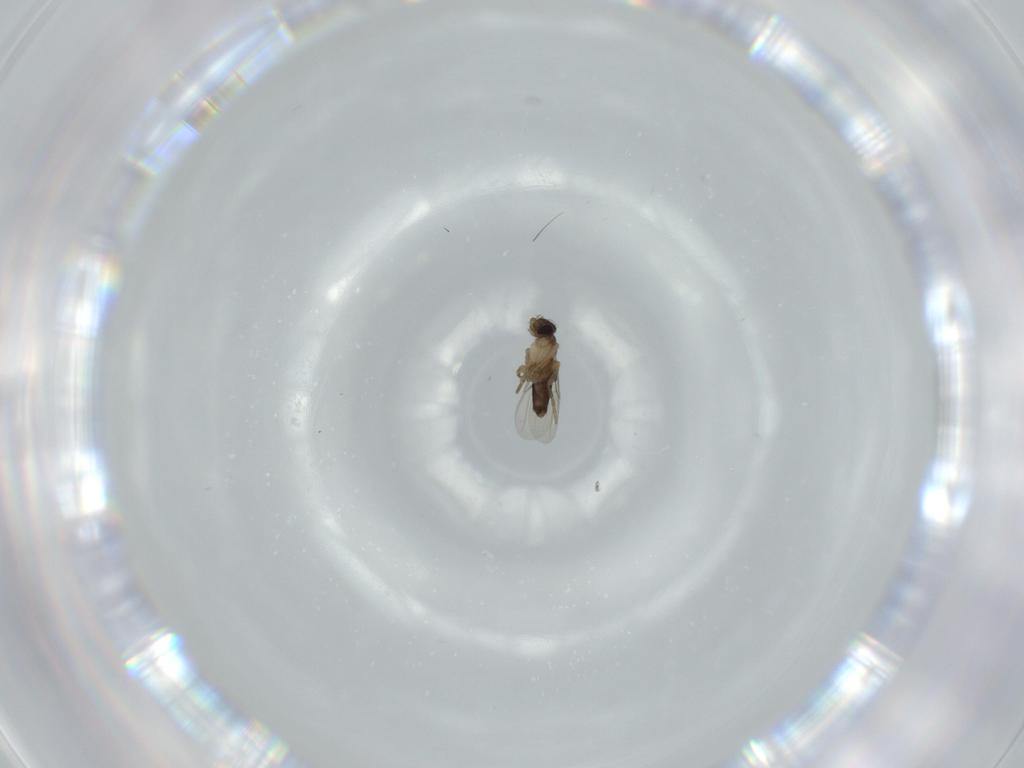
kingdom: Animalia
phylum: Arthropoda
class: Insecta
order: Diptera
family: Phoridae
